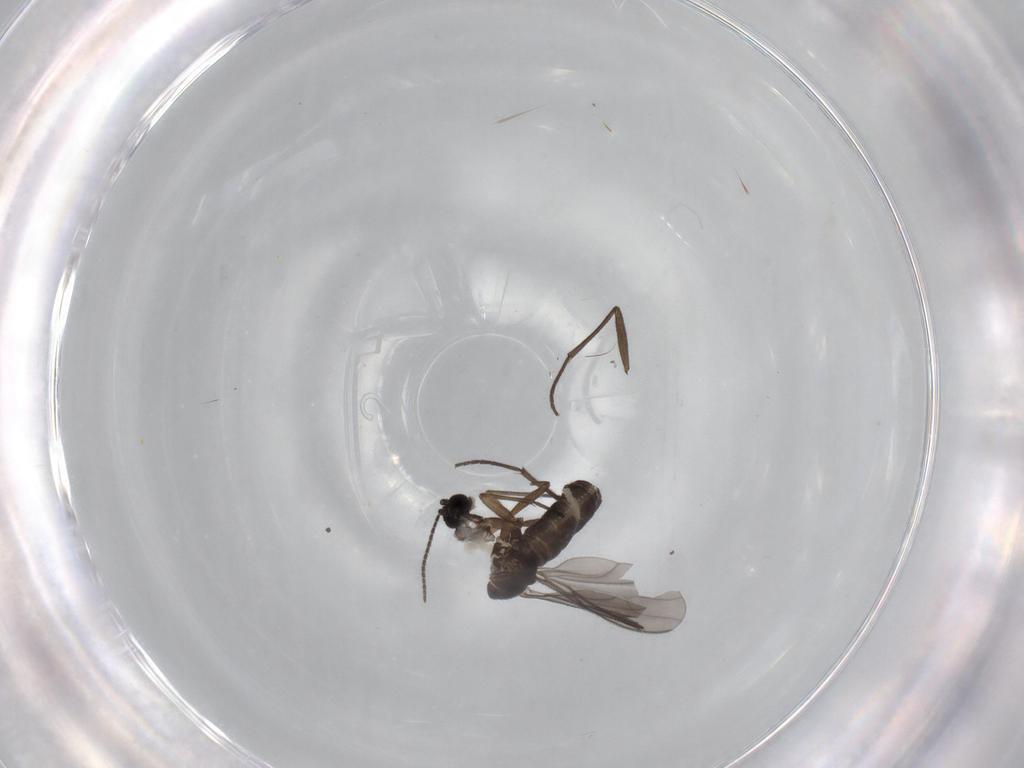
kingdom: Animalia
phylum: Arthropoda
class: Insecta
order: Diptera
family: Sciaridae
